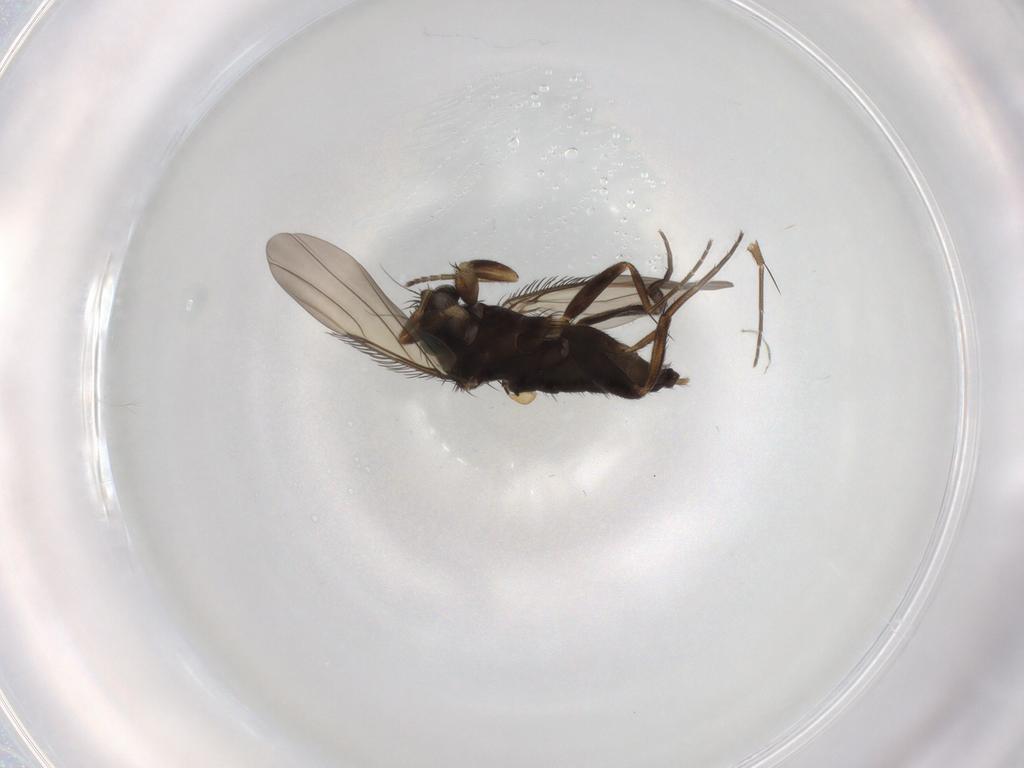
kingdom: Animalia
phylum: Arthropoda
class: Insecta
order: Diptera
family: Phoridae
